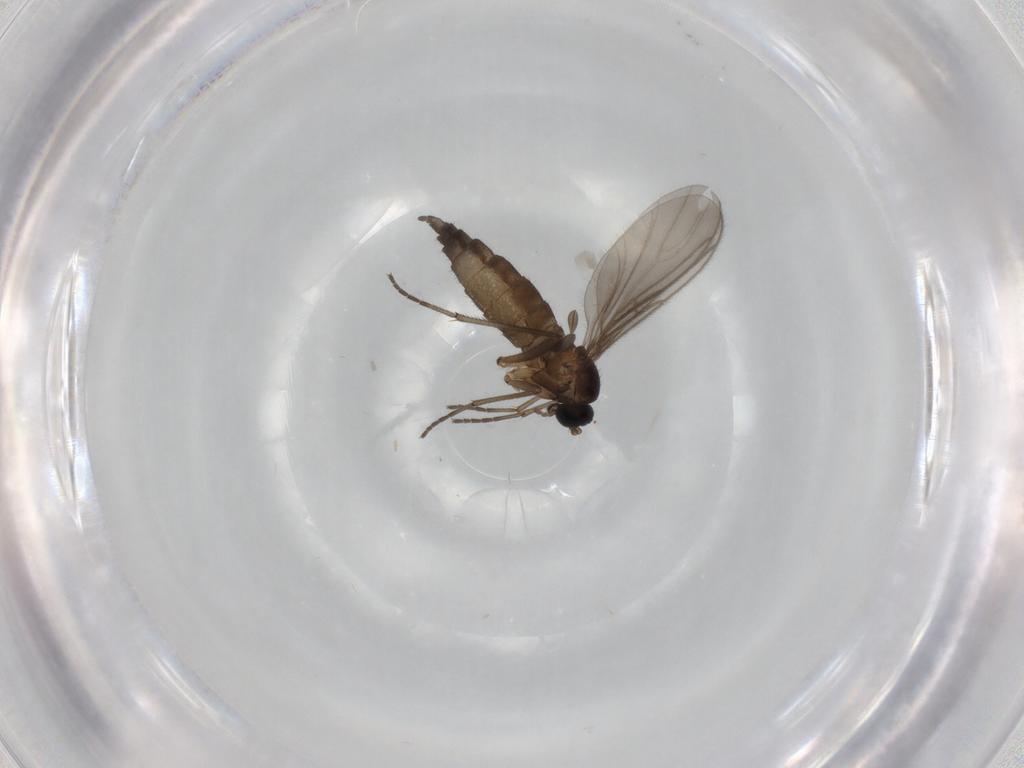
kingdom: Animalia
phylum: Arthropoda
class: Insecta
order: Diptera
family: Sciaridae
